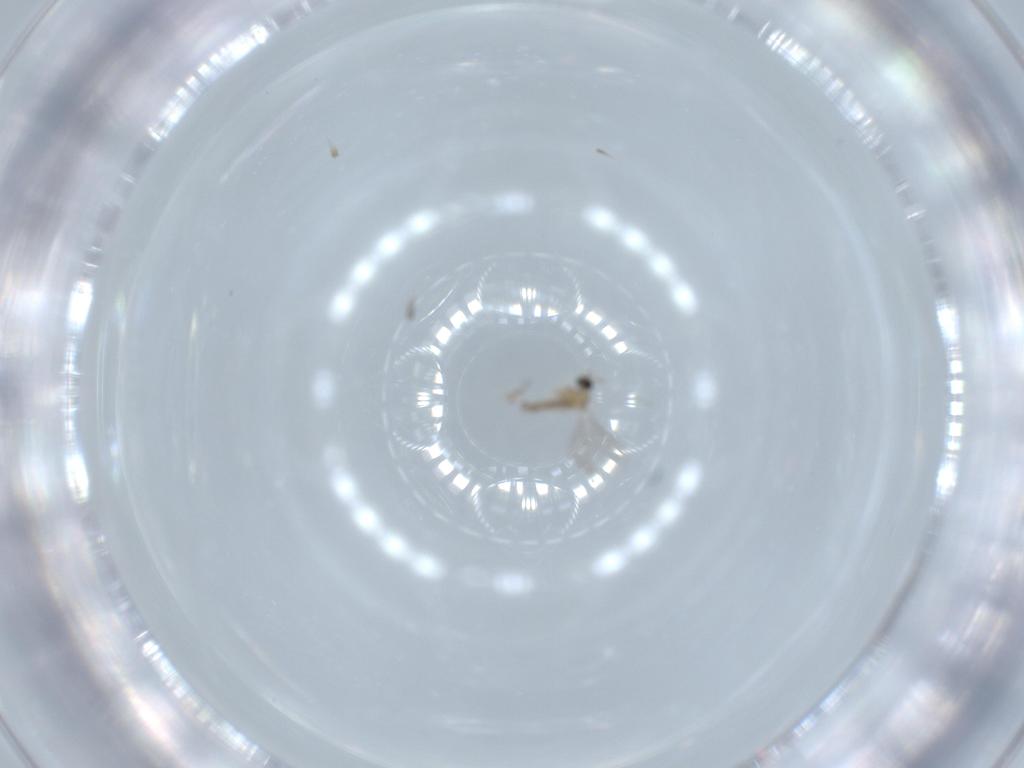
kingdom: Animalia
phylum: Arthropoda
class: Insecta
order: Diptera
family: Cecidomyiidae
